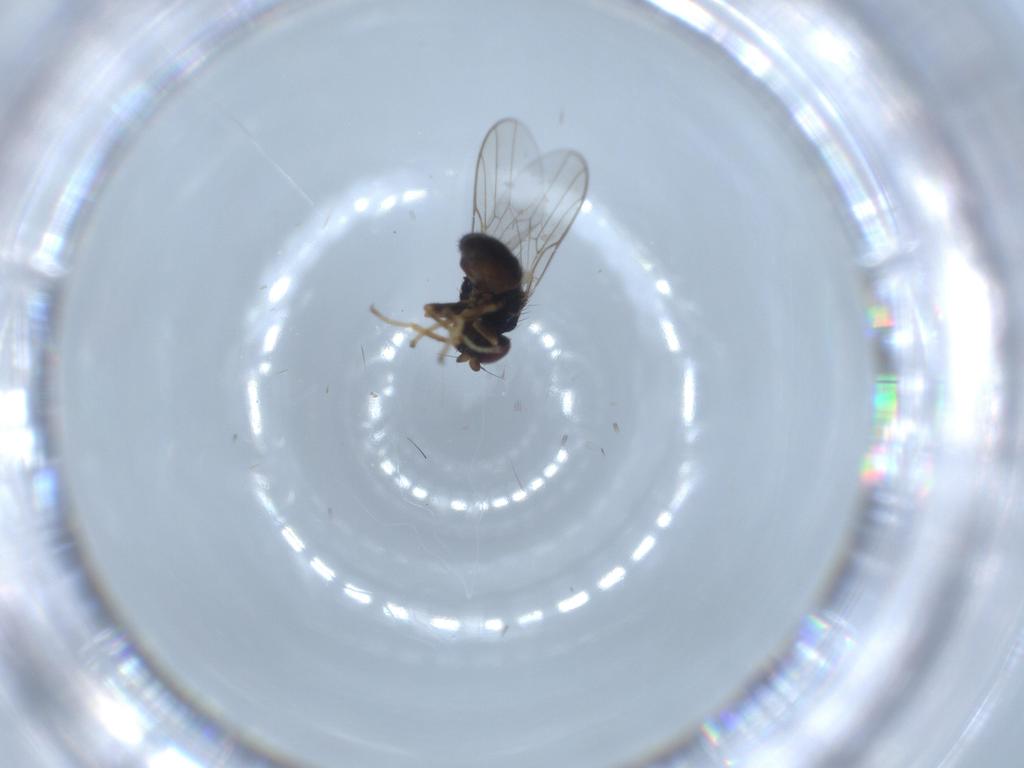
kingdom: Animalia
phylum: Arthropoda
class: Insecta
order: Diptera
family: Chloropidae
